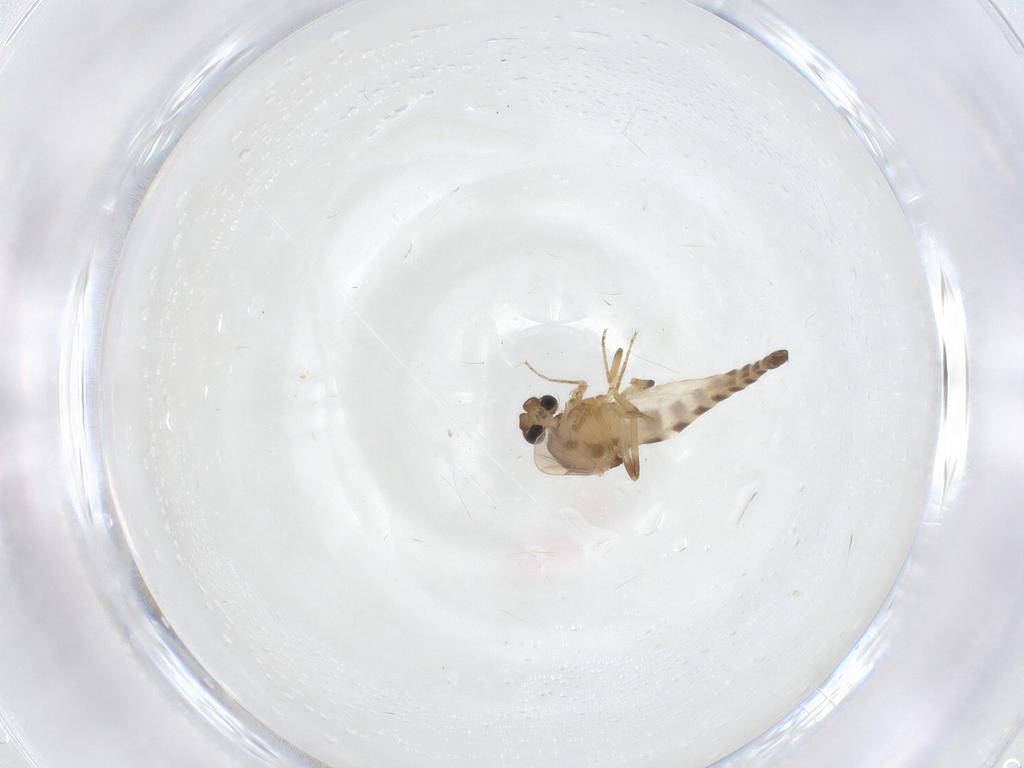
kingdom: Animalia
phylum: Arthropoda
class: Insecta
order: Diptera
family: Ceratopogonidae
